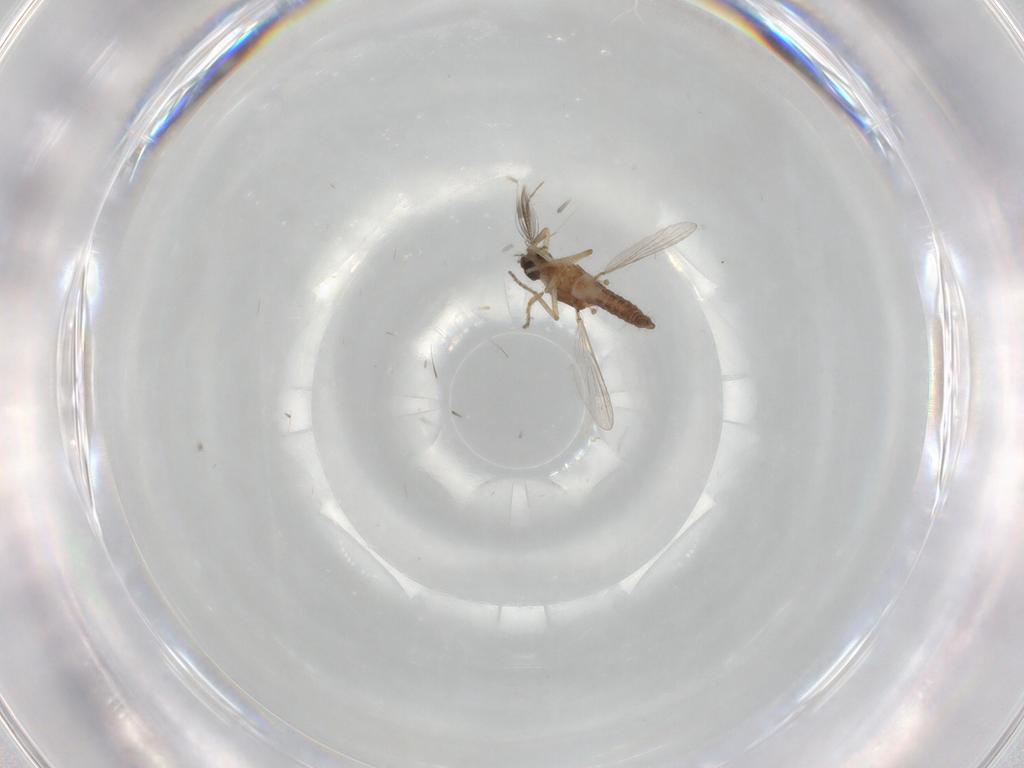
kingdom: Animalia
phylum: Arthropoda
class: Insecta
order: Diptera
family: Ceratopogonidae
